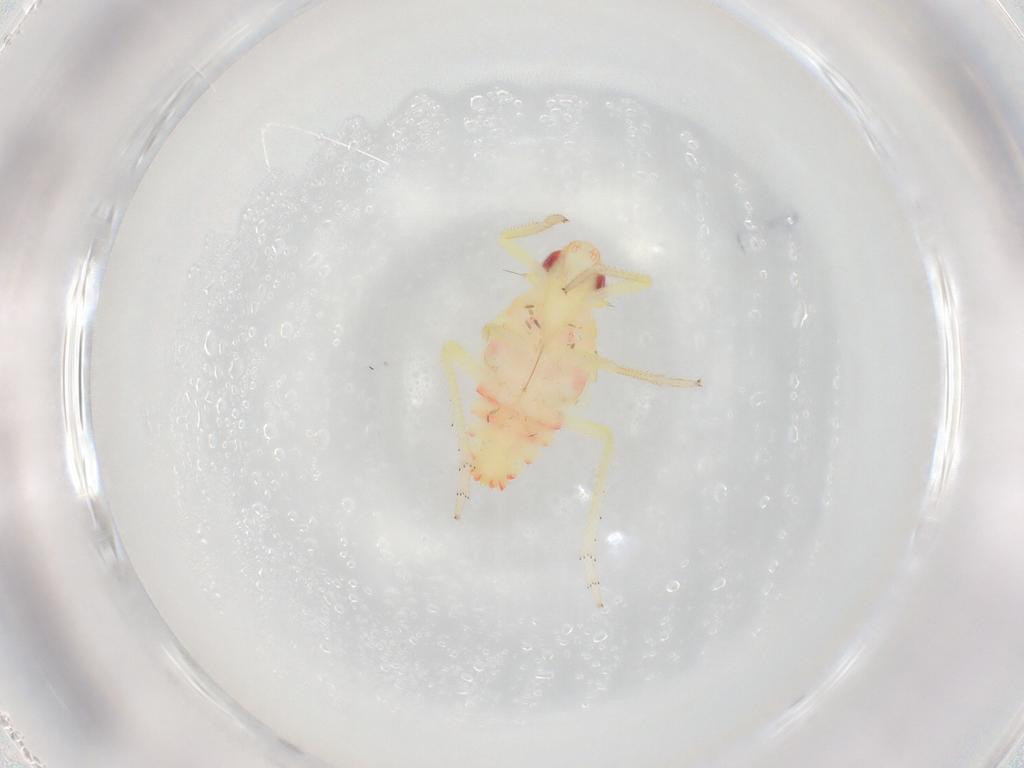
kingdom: Animalia
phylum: Arthropoda
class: Insecta
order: Hemiptera
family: Tropiduchidae
